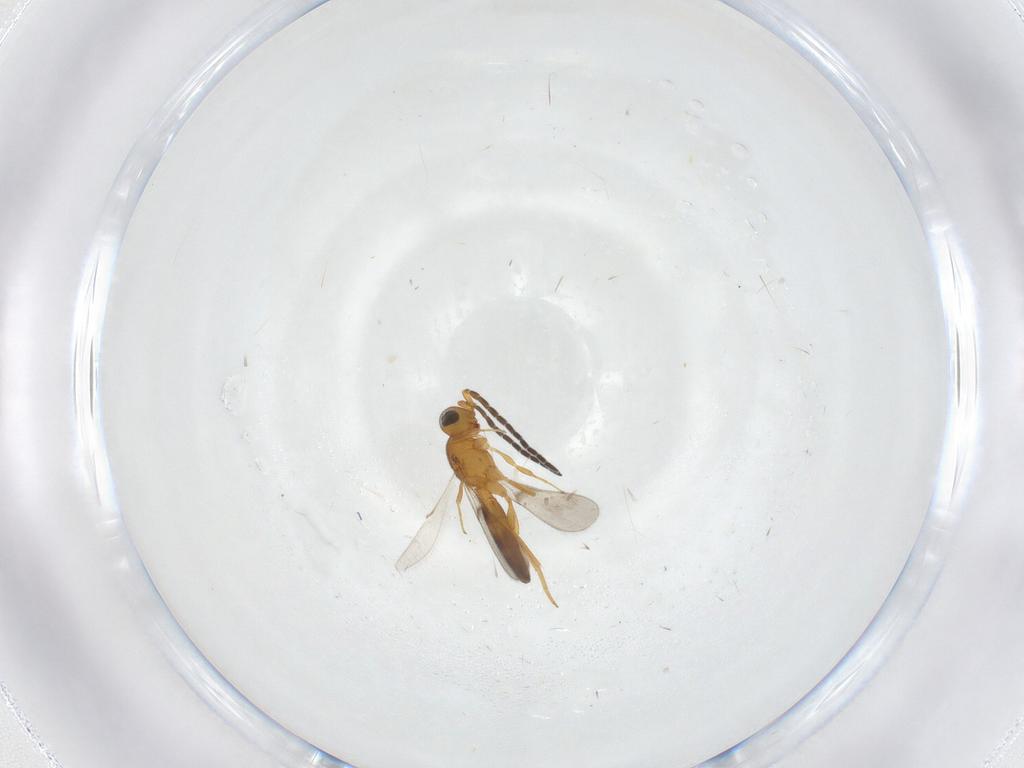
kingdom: Animalia
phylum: Arthropoda
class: Insecta
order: Hymenoptera
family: Scelionidae
